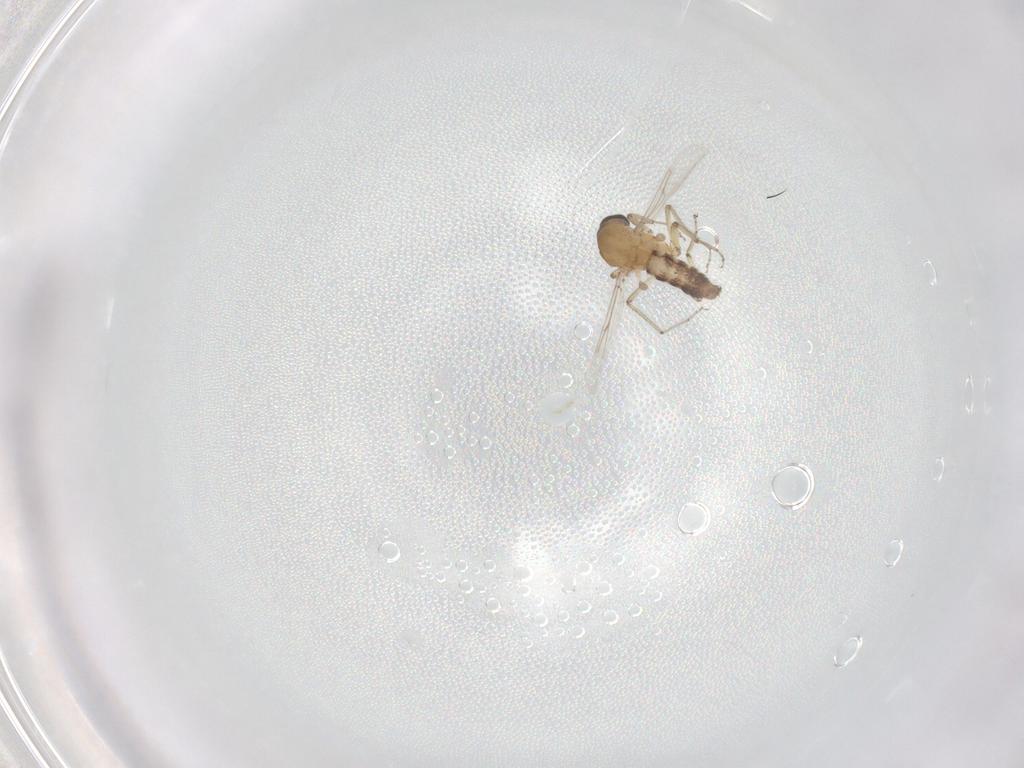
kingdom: Animalia
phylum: Arthropoda
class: Insecta
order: Diptera
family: Ceratopogonidae
